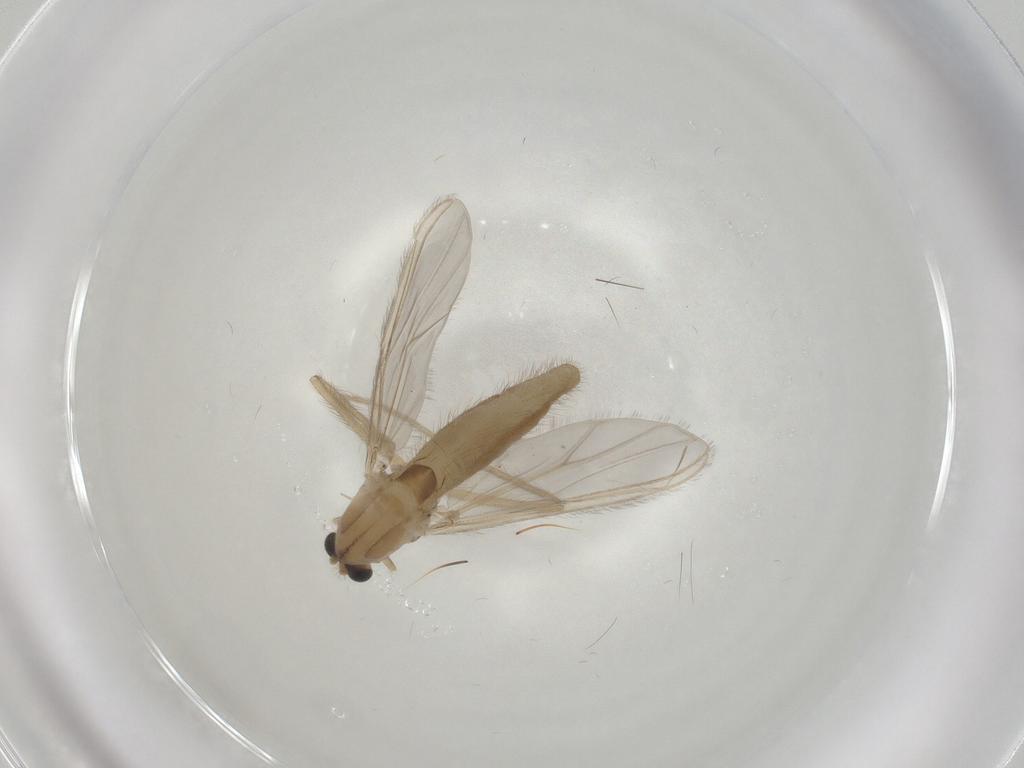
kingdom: Animalia
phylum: Arthropoda
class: Insecta
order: Diptera
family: Chironomidae
